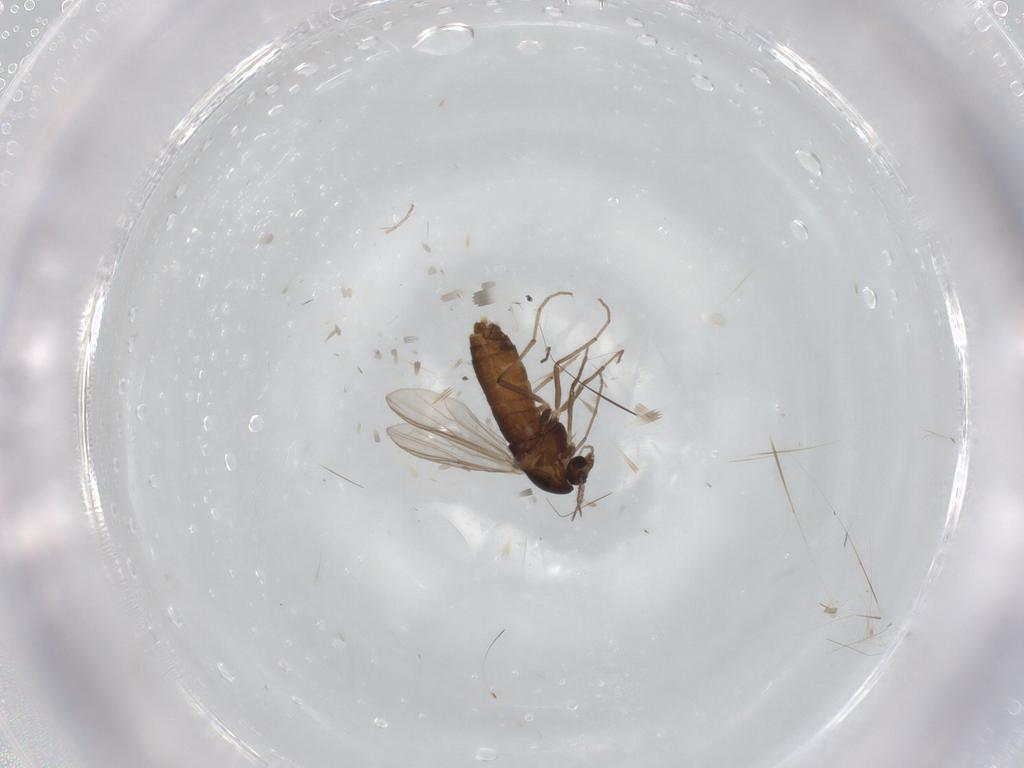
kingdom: Animalia
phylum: Arthropoda
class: Insecta
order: Diptera
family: Chironomidae
